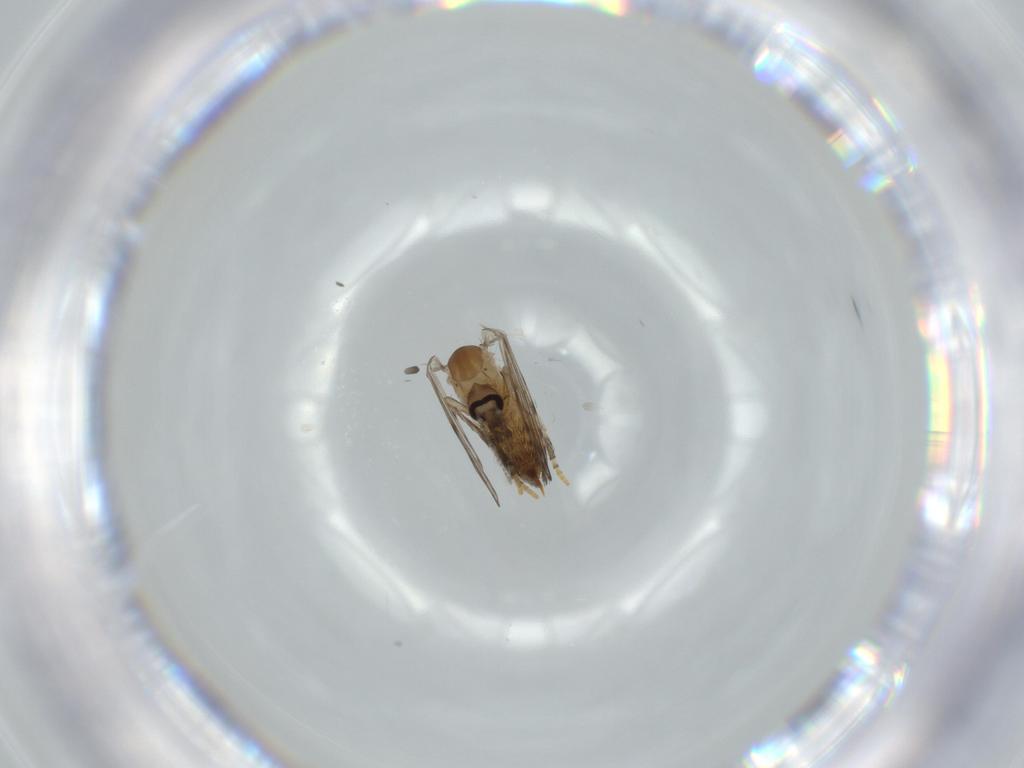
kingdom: Animalia
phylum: Arthropoda
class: Insecta
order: Diptera
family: Psychodidae
